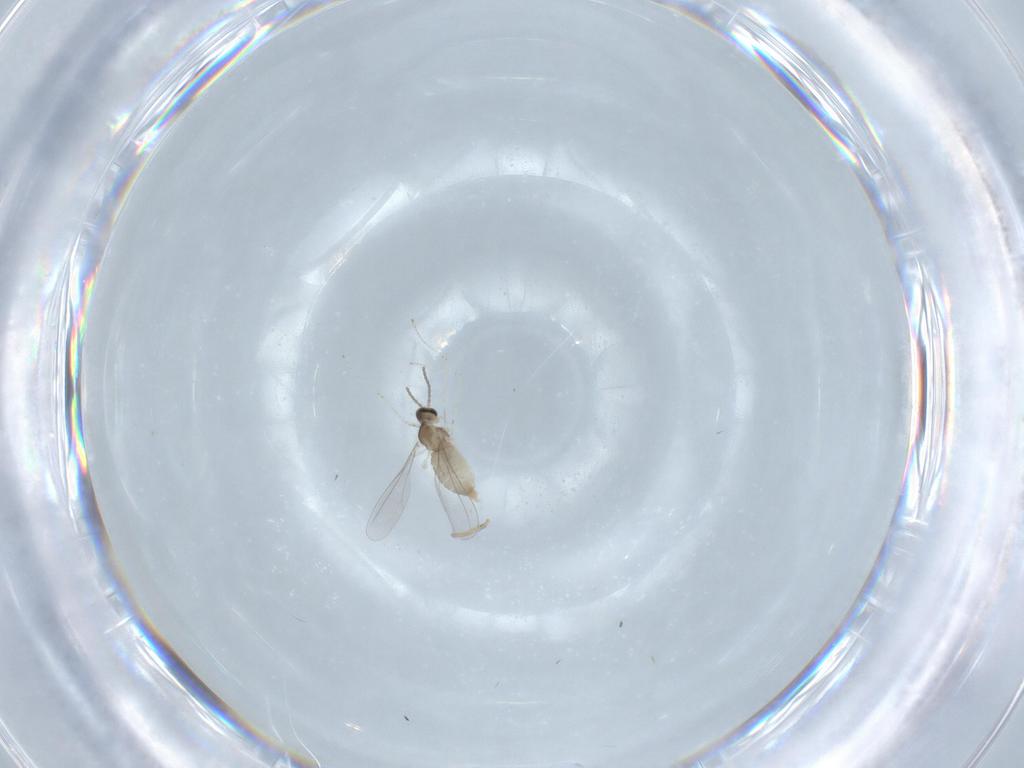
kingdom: Animalia
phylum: Arthropoda
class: Insecta
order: Diptera
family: Cecidomyiidae
